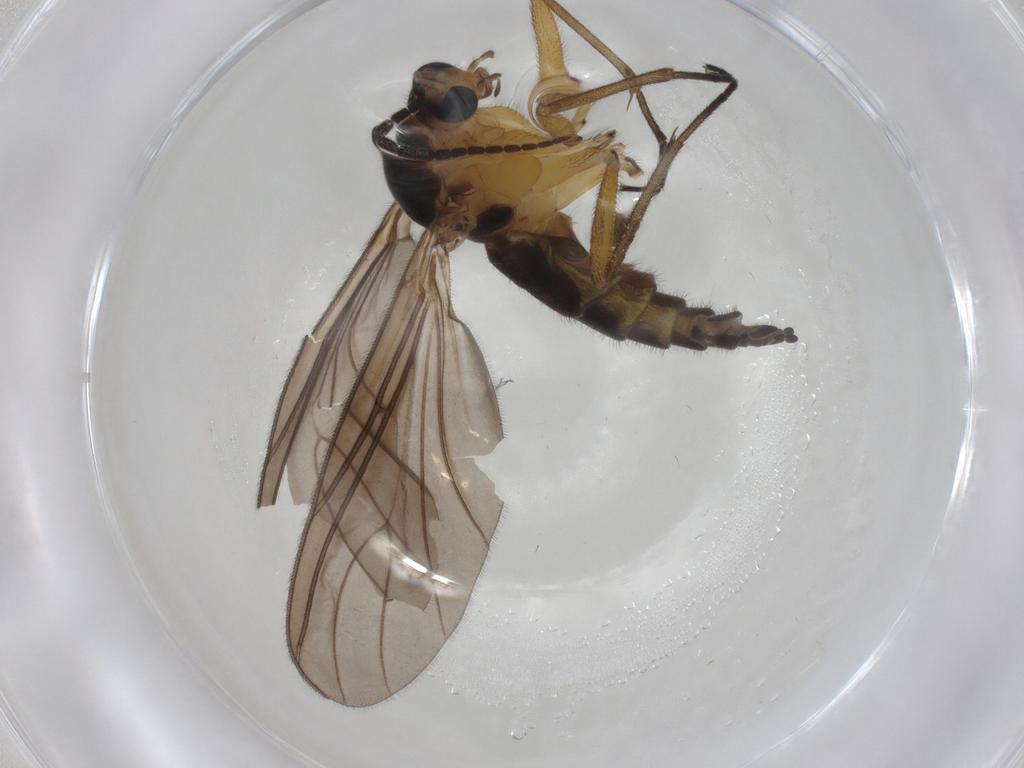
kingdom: Animalia
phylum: Arthropoda
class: Insecta
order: Diptera
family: Sciaridae
